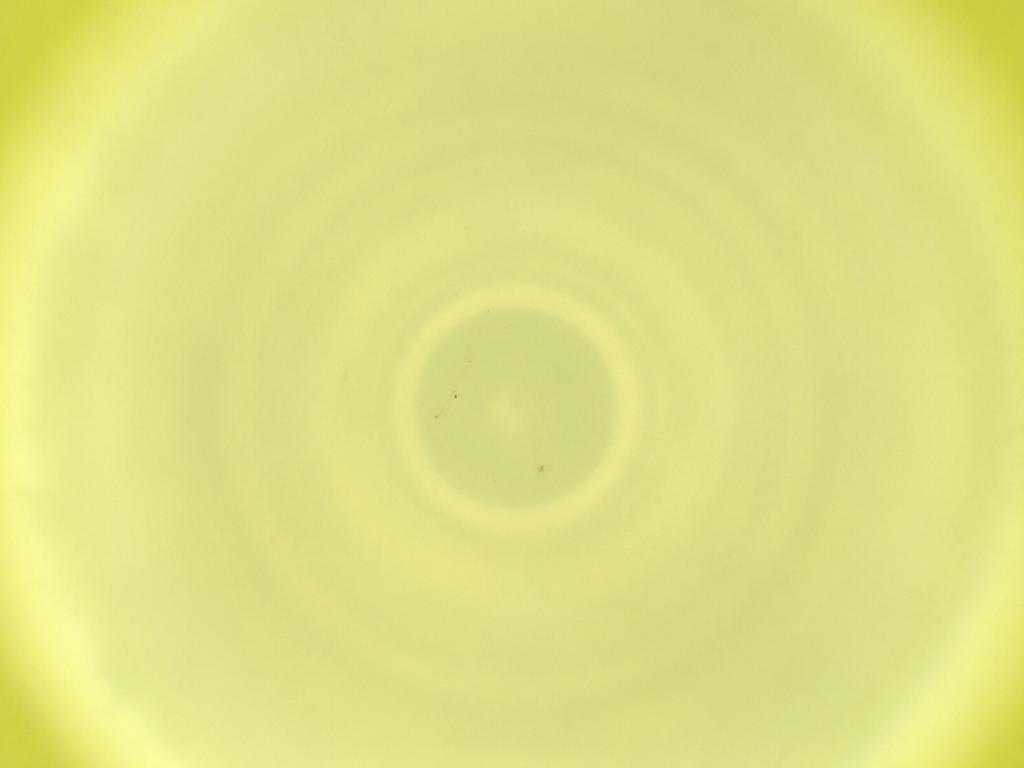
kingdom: Animalia
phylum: Arthropoda
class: Insecta
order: Diptera
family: Cecidomyiidae
